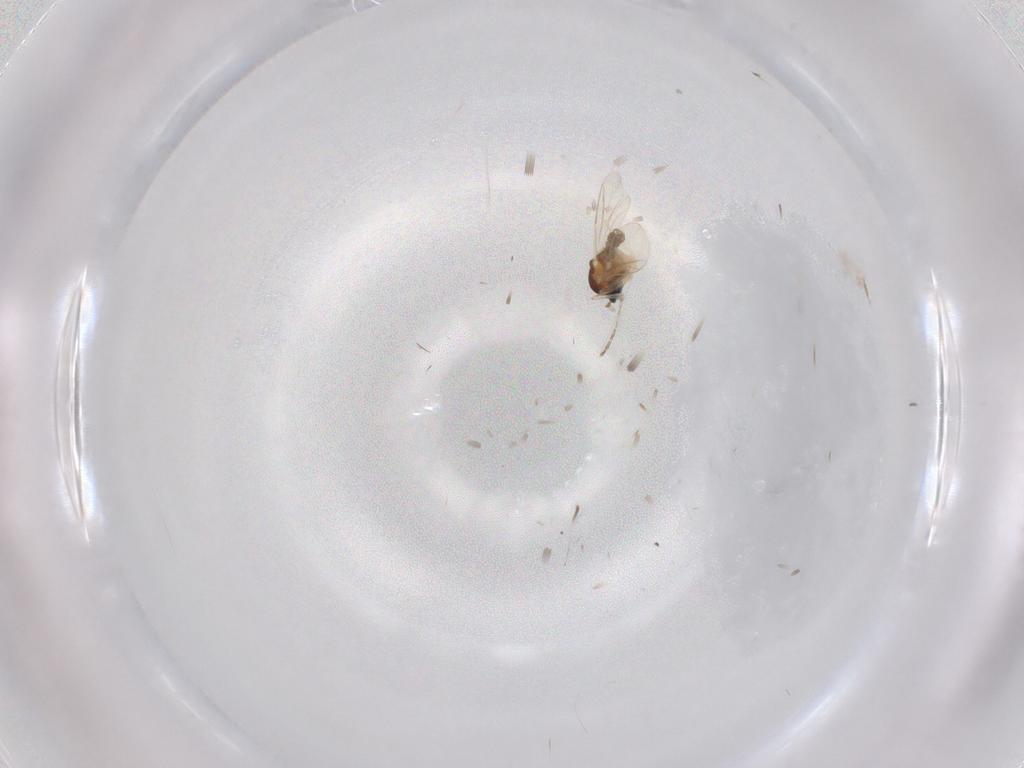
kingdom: Animalia
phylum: Arthropoda
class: Insecta
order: Diptera
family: Cecidomyiidae
